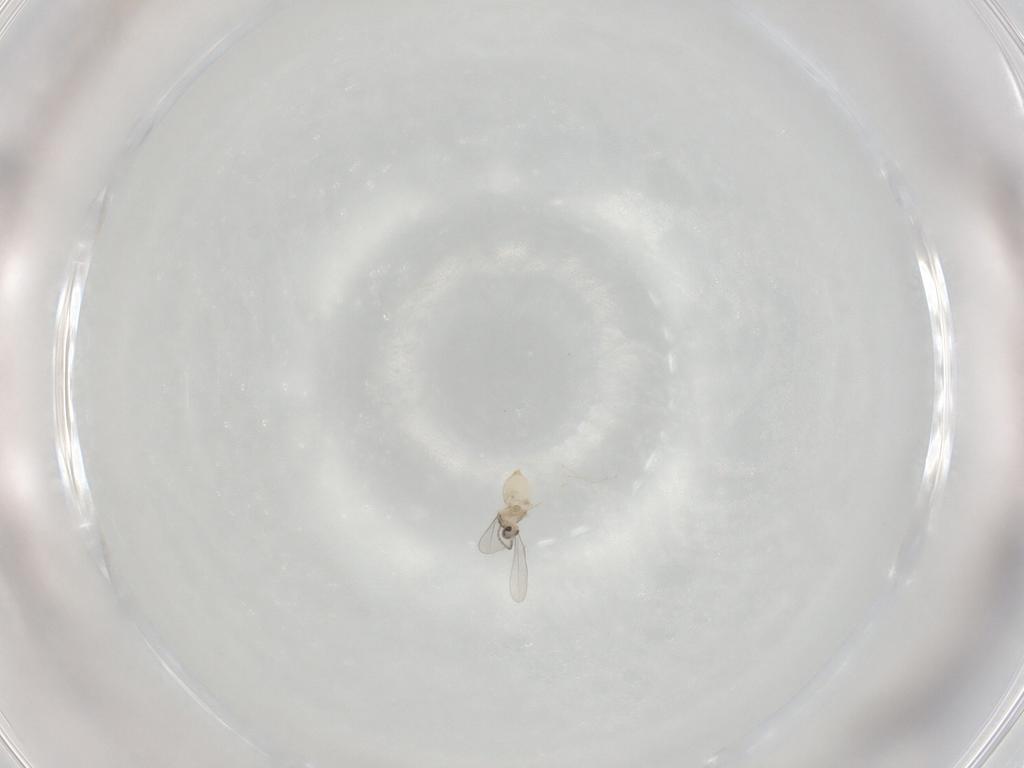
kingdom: Animalia
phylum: Arthropoda
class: Insecta
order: Diptera
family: Cecidomyiidae
